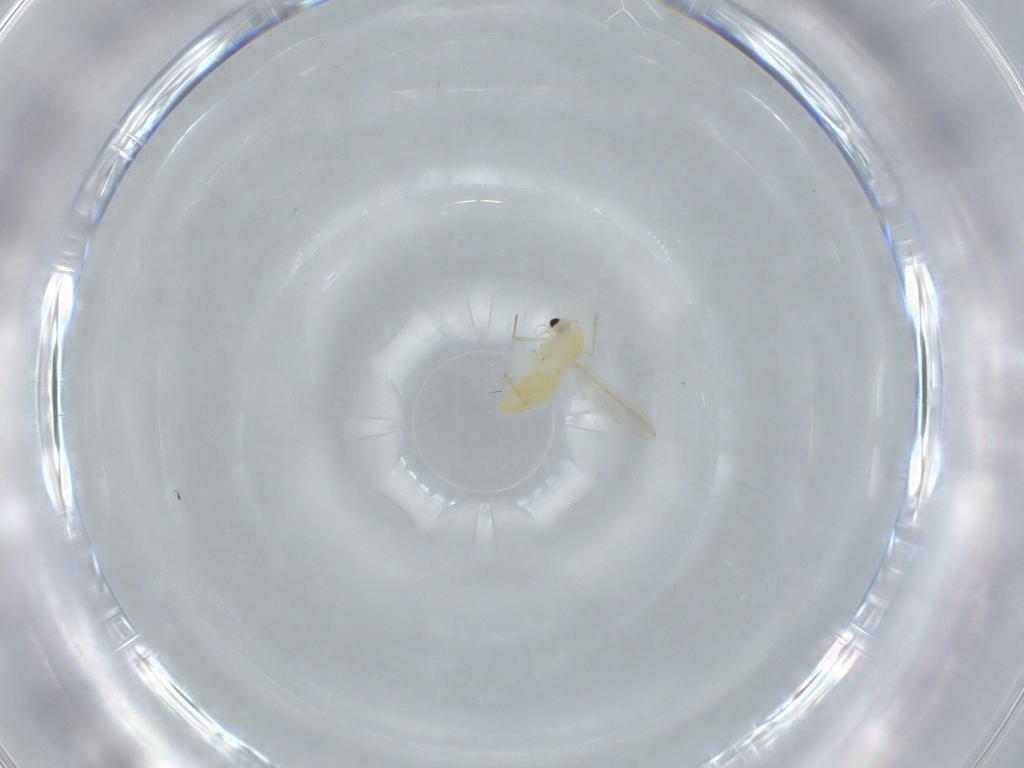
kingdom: Animalia
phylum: Arthropoda
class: Insecta
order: Diptera
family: Chironomidae
